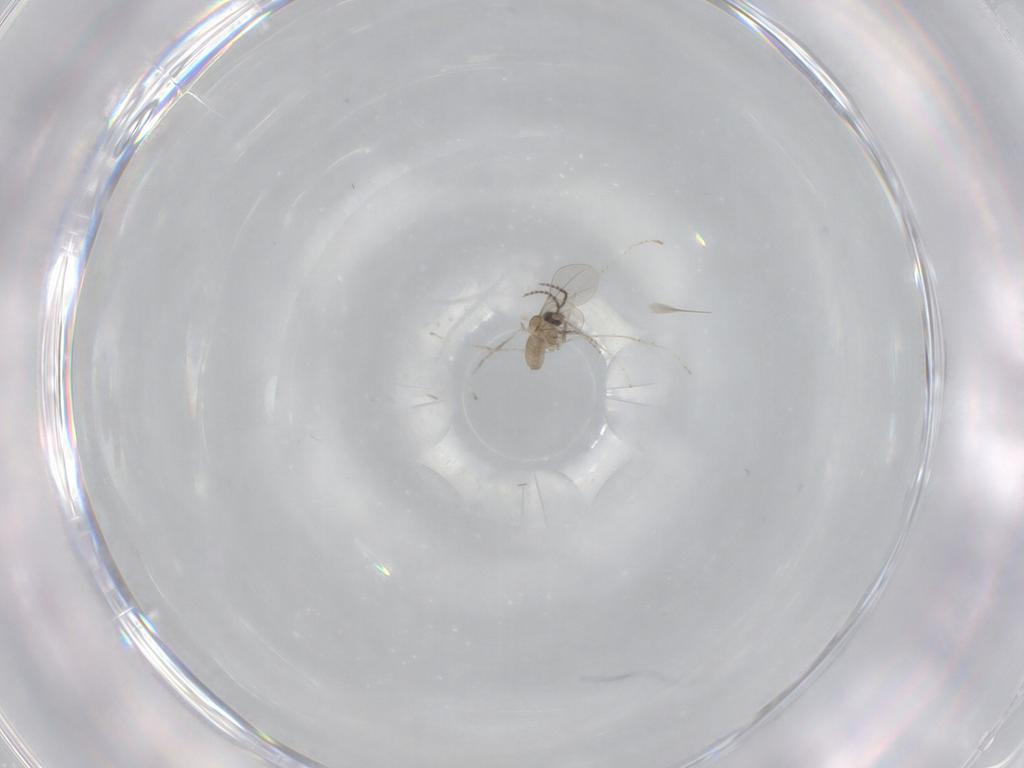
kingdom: Animalia
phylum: Arthropoda
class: Insecta
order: Diptera
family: Cecidomyiidae
